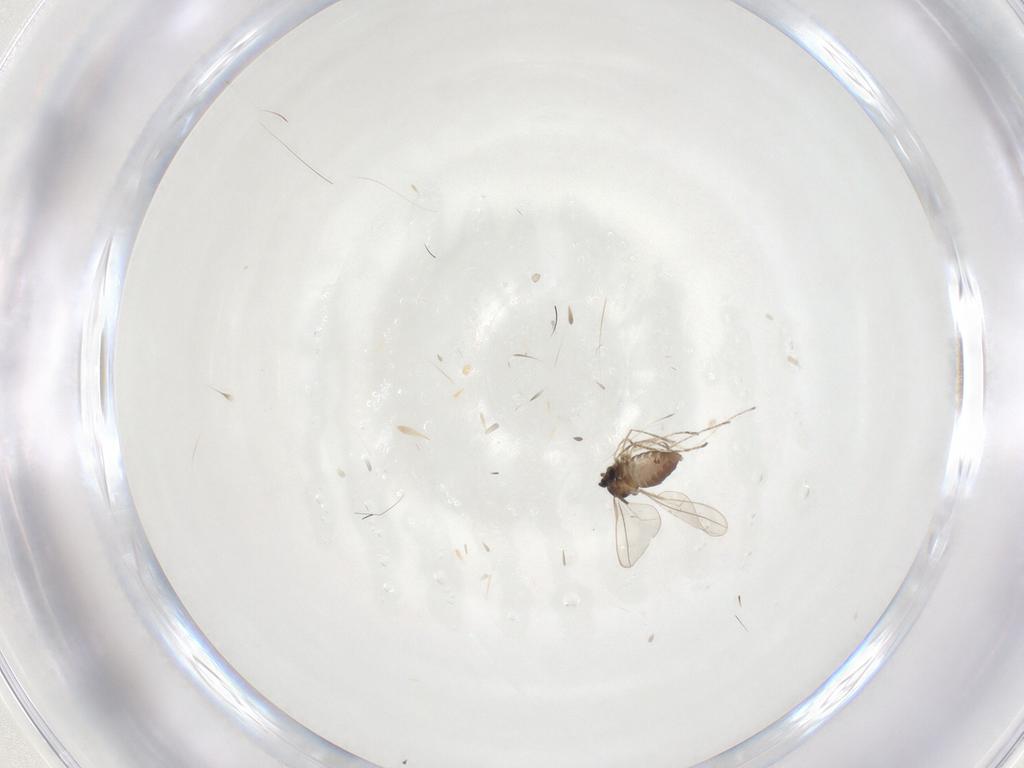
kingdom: Animalia
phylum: Arthropoda
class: Insecta
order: Diptera
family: Cecidomyiidae
